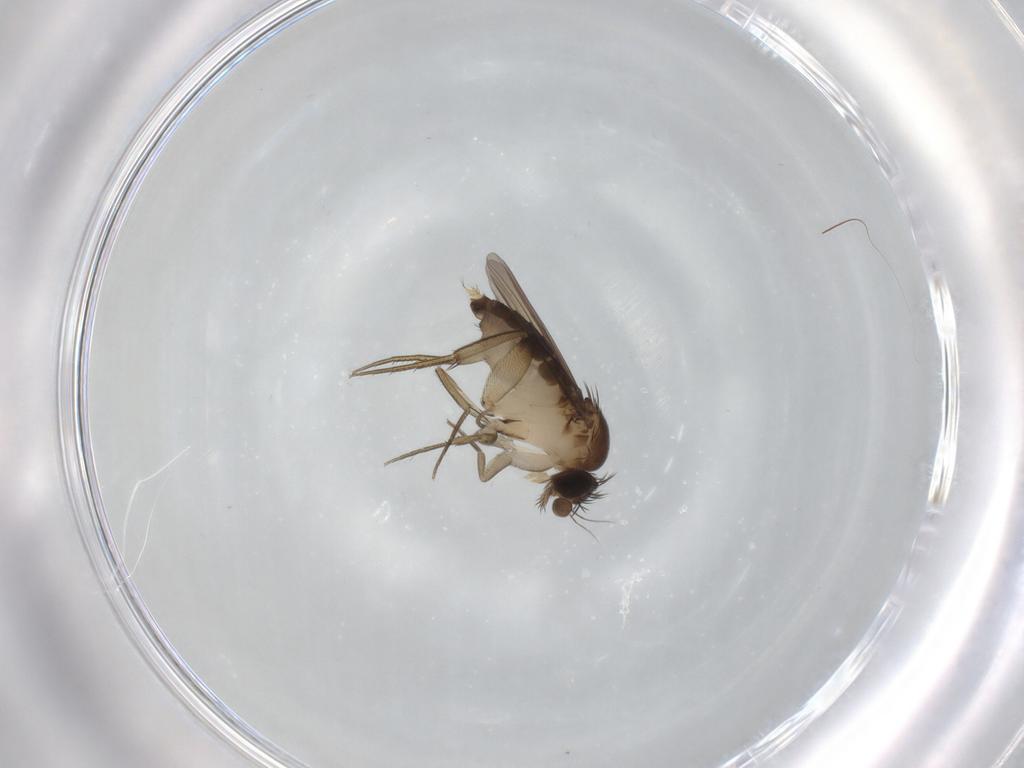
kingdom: Animalia
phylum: Arthropoda
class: Insecta
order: Diptera
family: Phoridae
